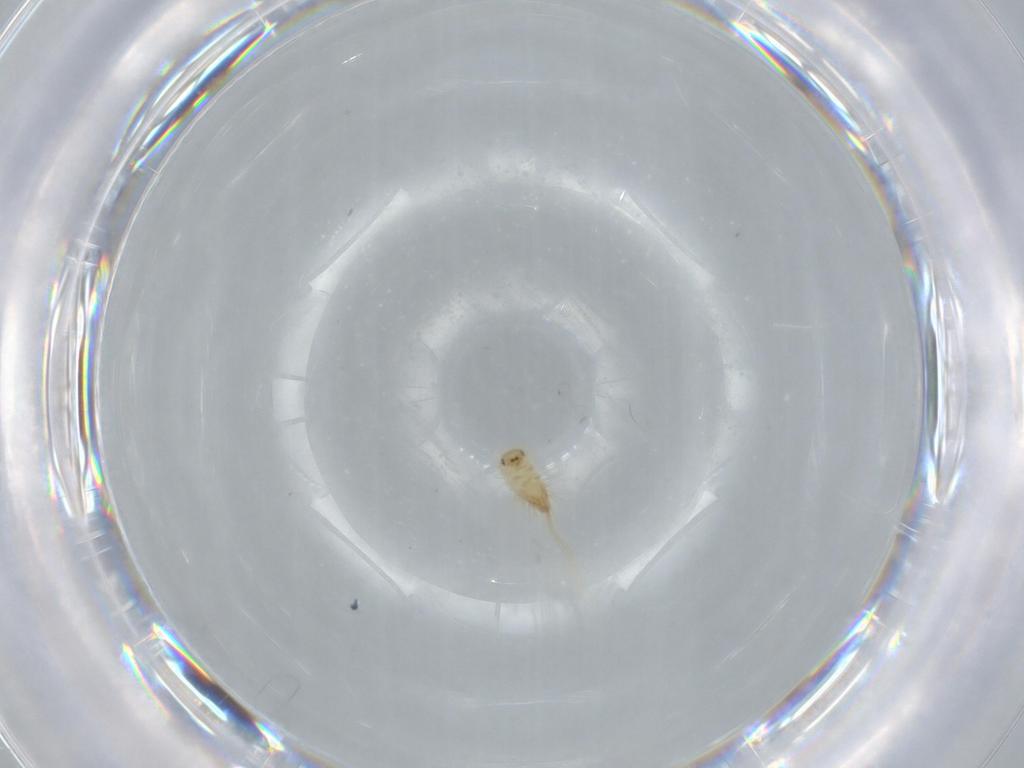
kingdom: Animalia
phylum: Arthropoda
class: Insecta
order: Coleoptera
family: Dermestidae
